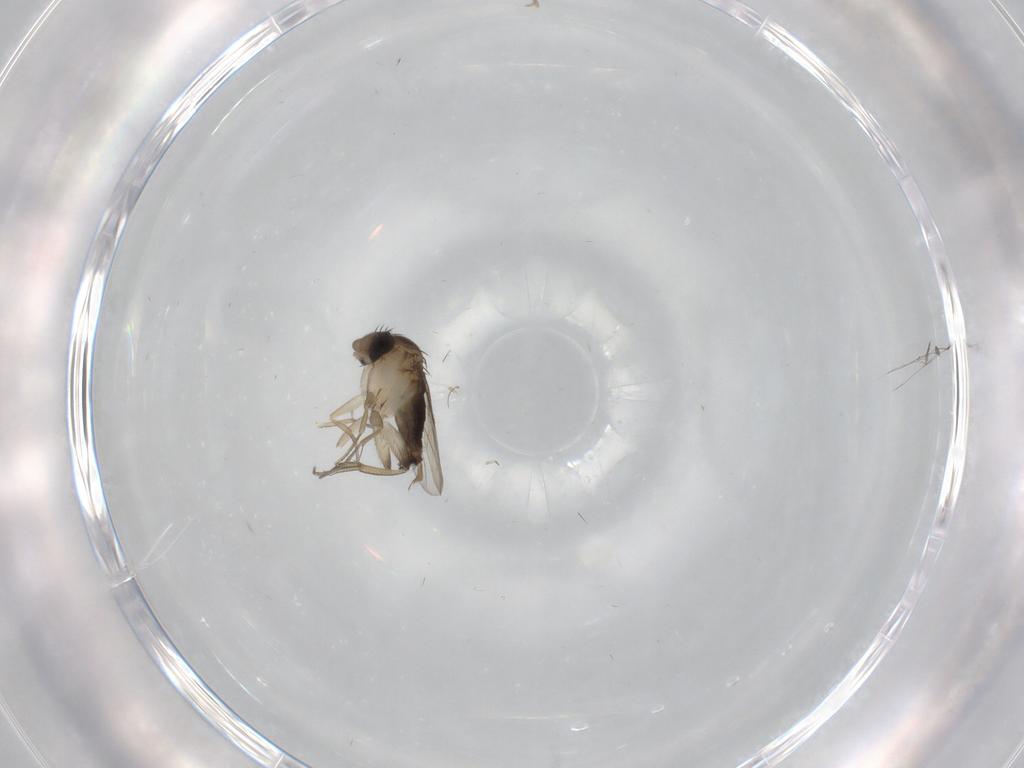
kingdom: Animalia
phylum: Arthropoda
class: Insecta
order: Diptera
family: Phoridae
